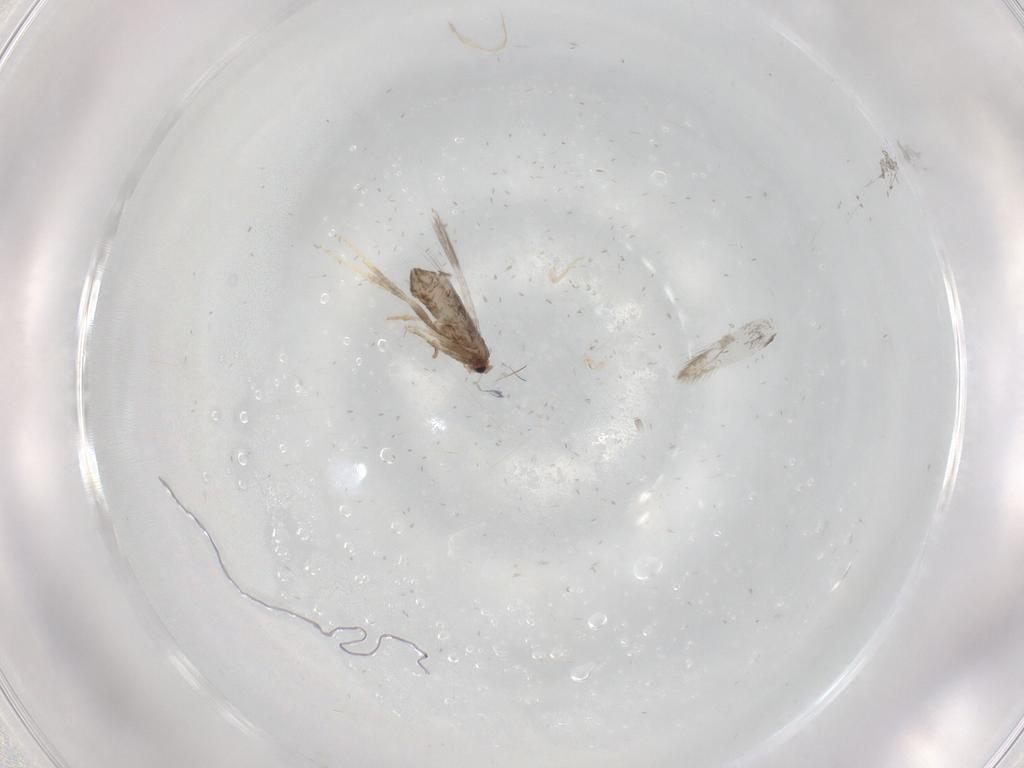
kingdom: Animalia
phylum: Arthropoda
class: Insecta
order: Lepidoptera
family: Nepticulidae
